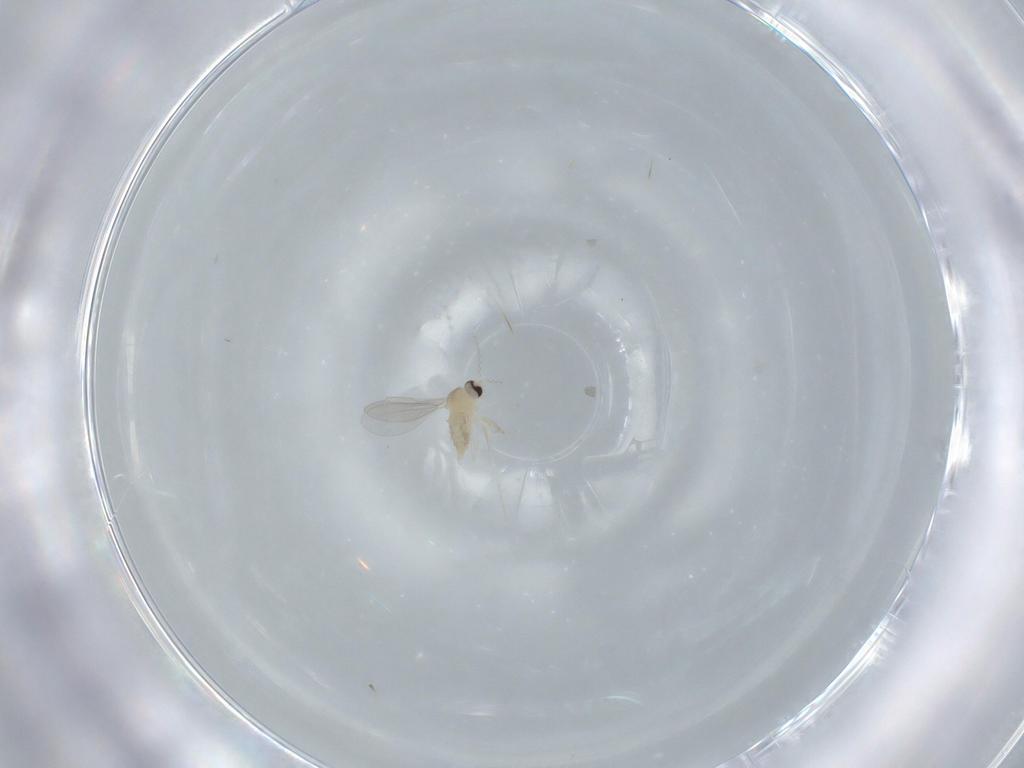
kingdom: Animalia
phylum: Arthropoda
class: Insecta
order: Diptera
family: Cecidomyiidae
